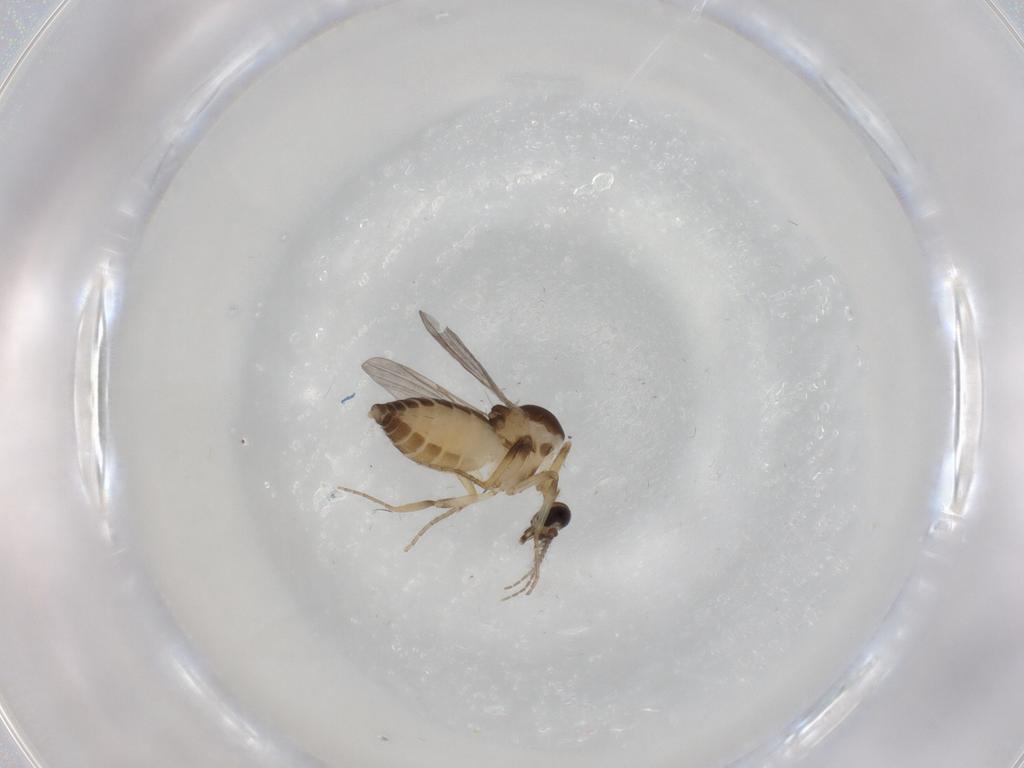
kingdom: Animalia
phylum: Arthropoda
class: Insecta
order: Diptera
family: Ceratopogonidae
